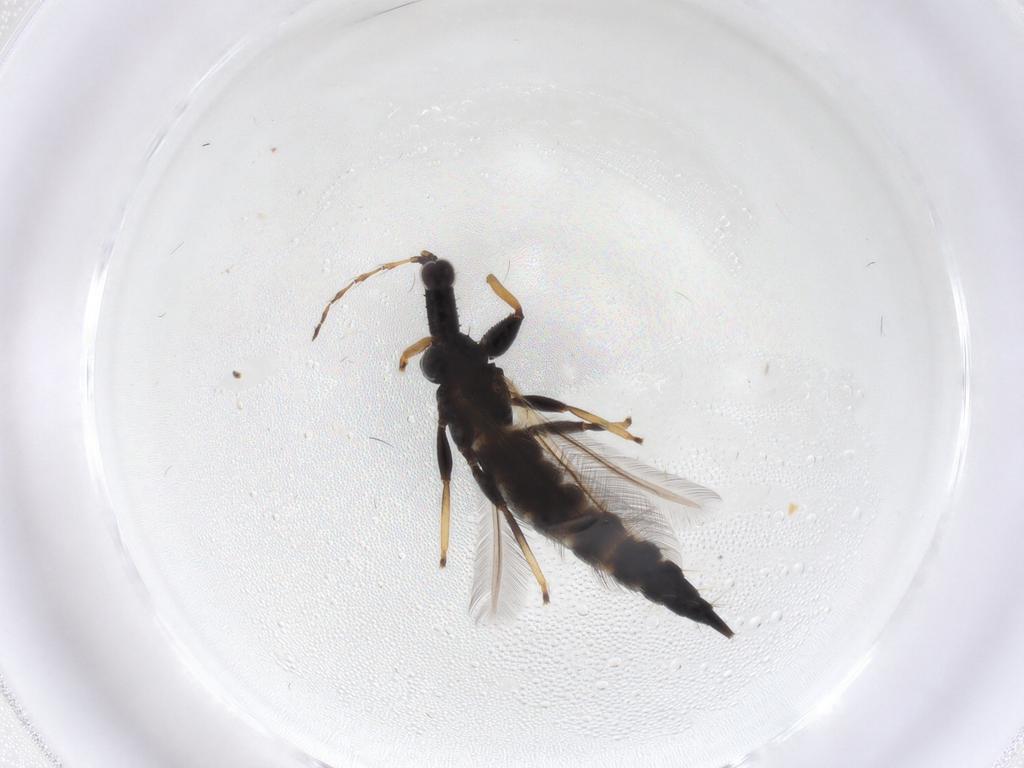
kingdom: Animalia
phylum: Arthropoda
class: Insecta
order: Thysanoptera
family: Phlaeothripidae
